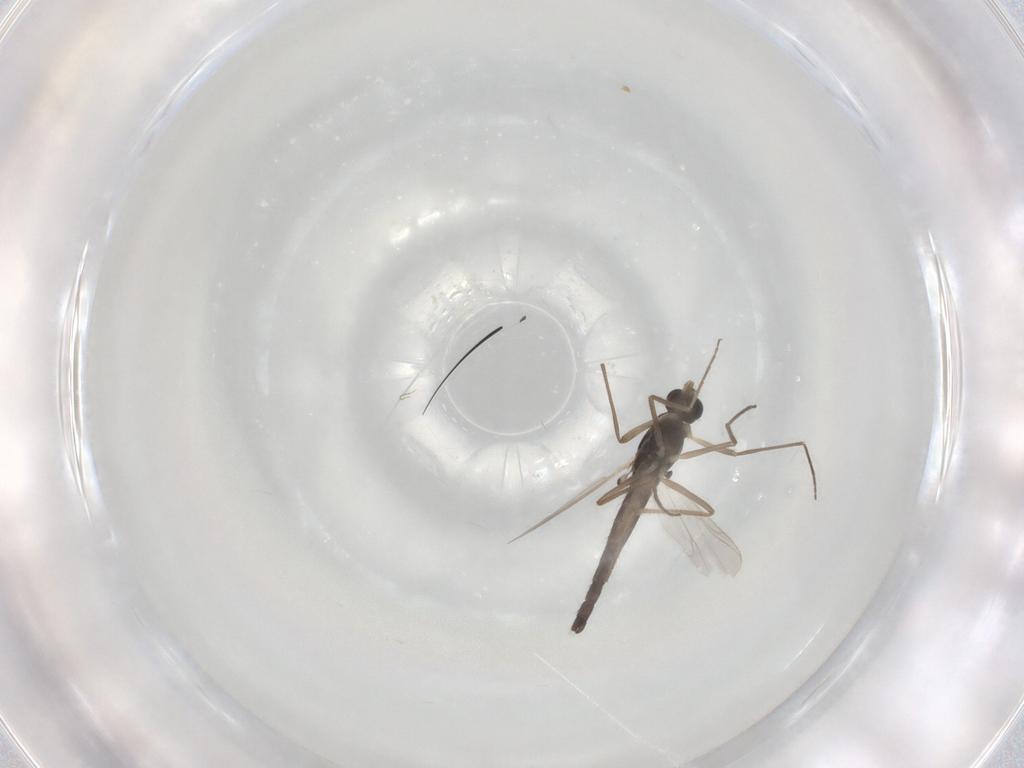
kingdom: Animalia
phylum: Arthropoda
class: Insecta
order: Diptera
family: Chironomidae
